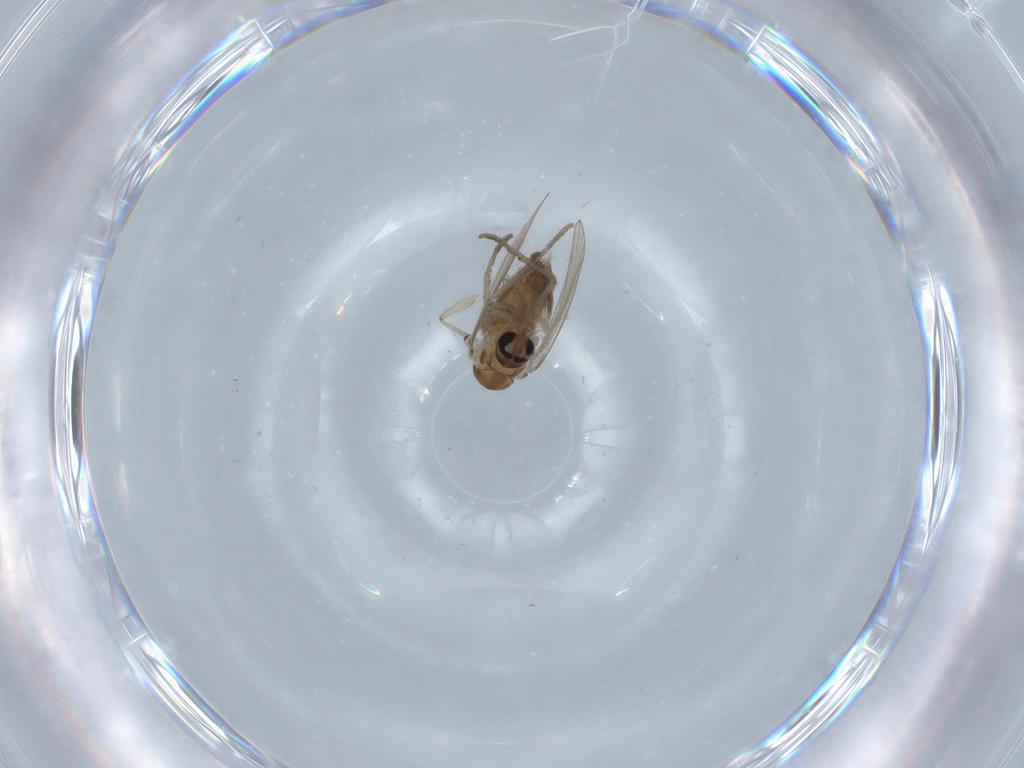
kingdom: Animalia
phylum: Arthropoda
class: Insecta
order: Diptera
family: Psychodidae
